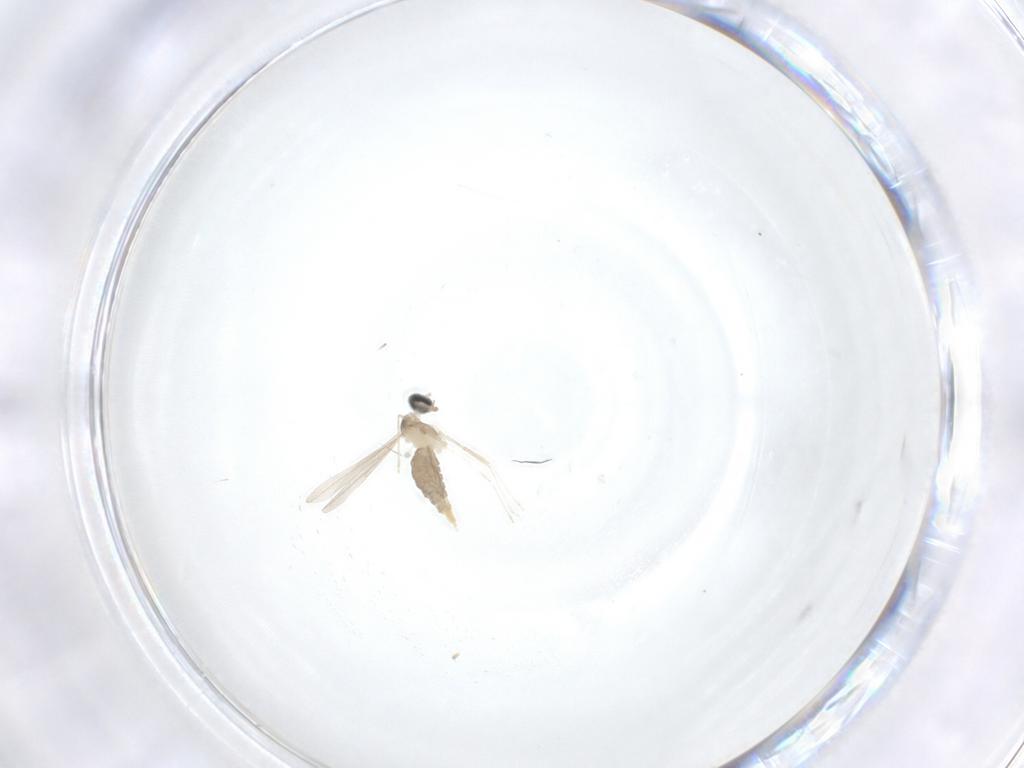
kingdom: Animalia
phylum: Arthropoda
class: Insecta
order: Diptera
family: Cecidomyiidae
